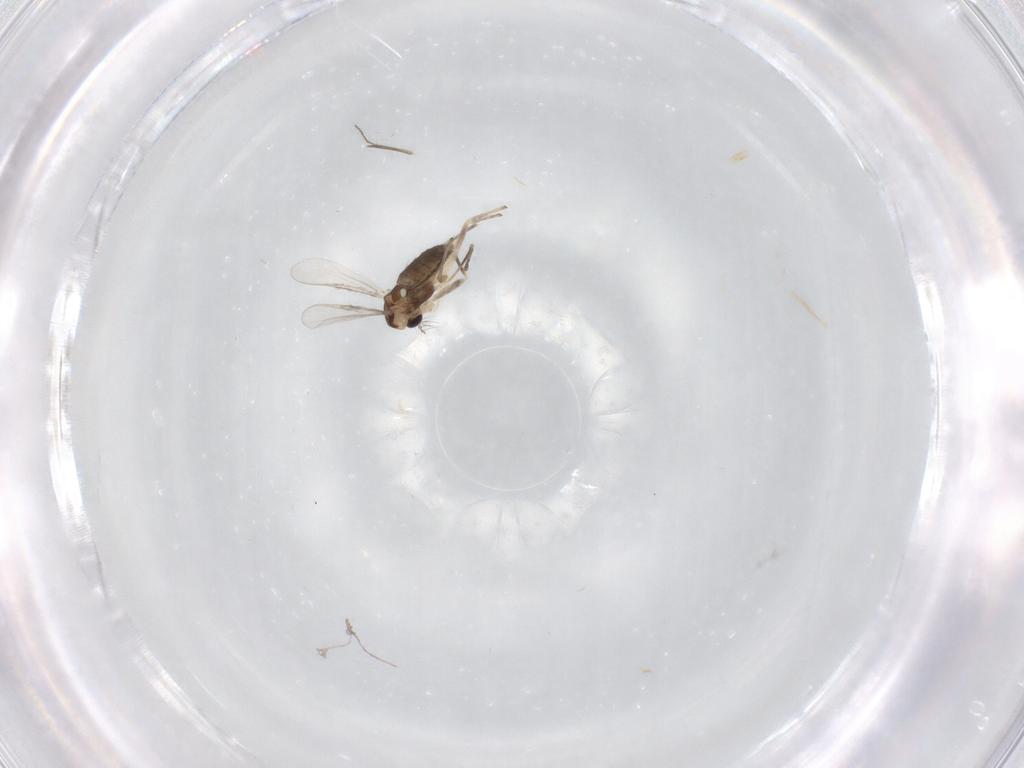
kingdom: Animalia
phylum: Arthropoda
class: Insecta
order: Diptera
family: Chironomidae
